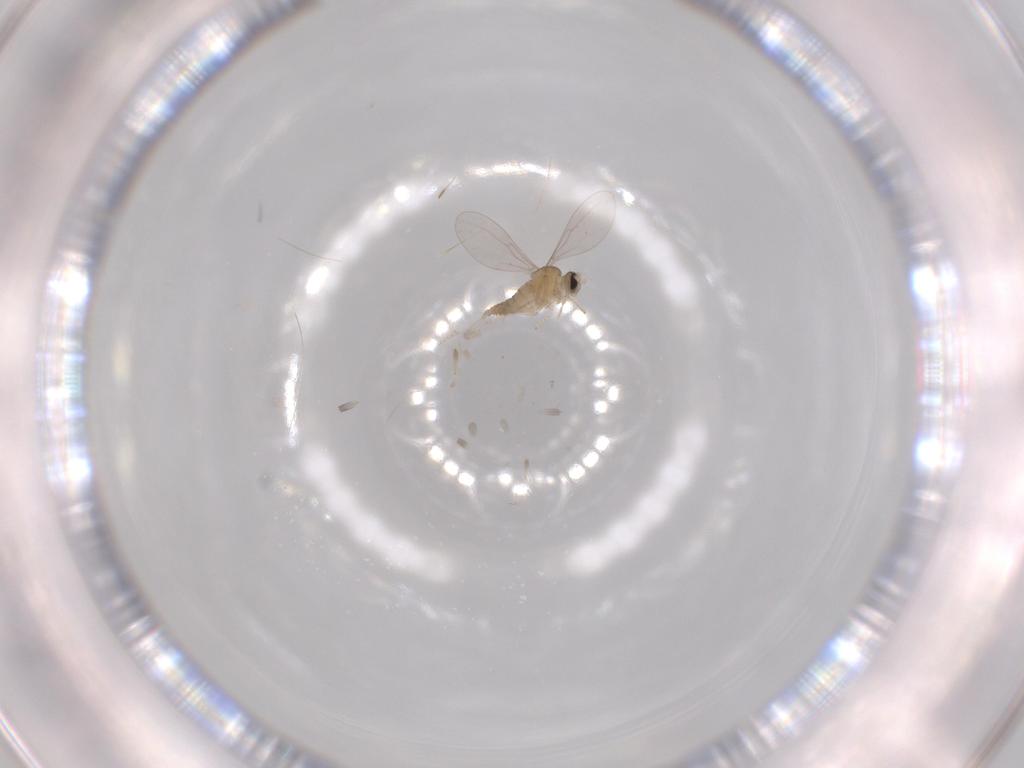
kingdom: Animalia
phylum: Arthropoda
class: Insecta
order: Diptera
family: Cecidomyiidae
